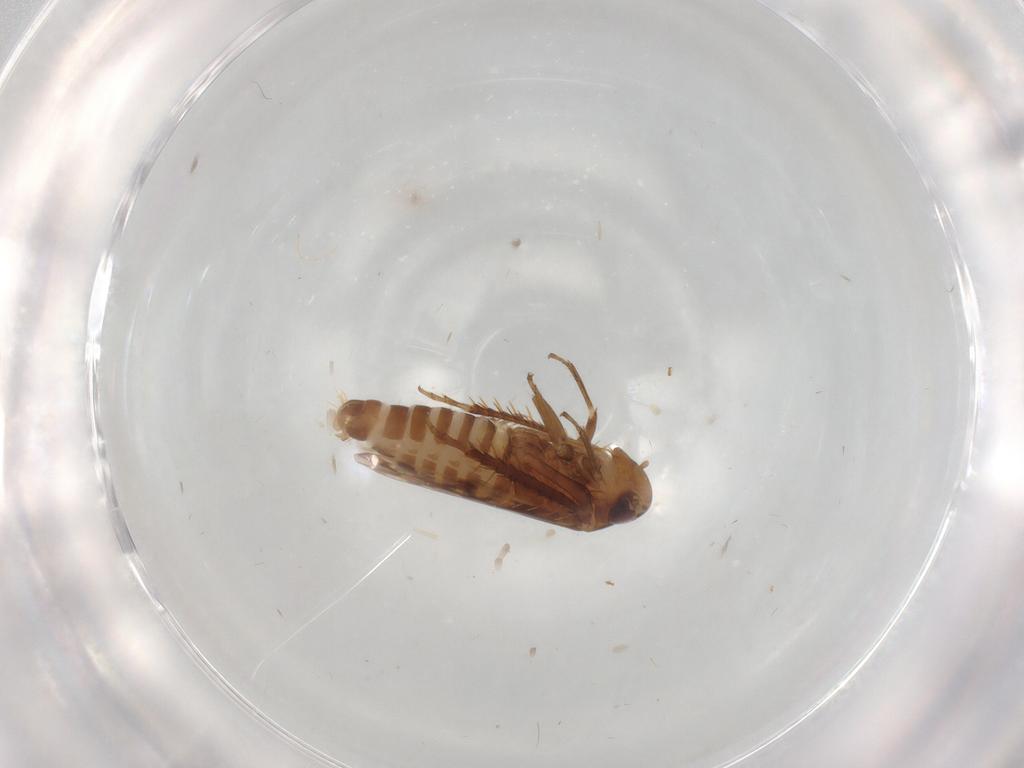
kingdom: Animalia
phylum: Arthropoda
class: Insecta
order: Hemiptera
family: Cicadellidae
